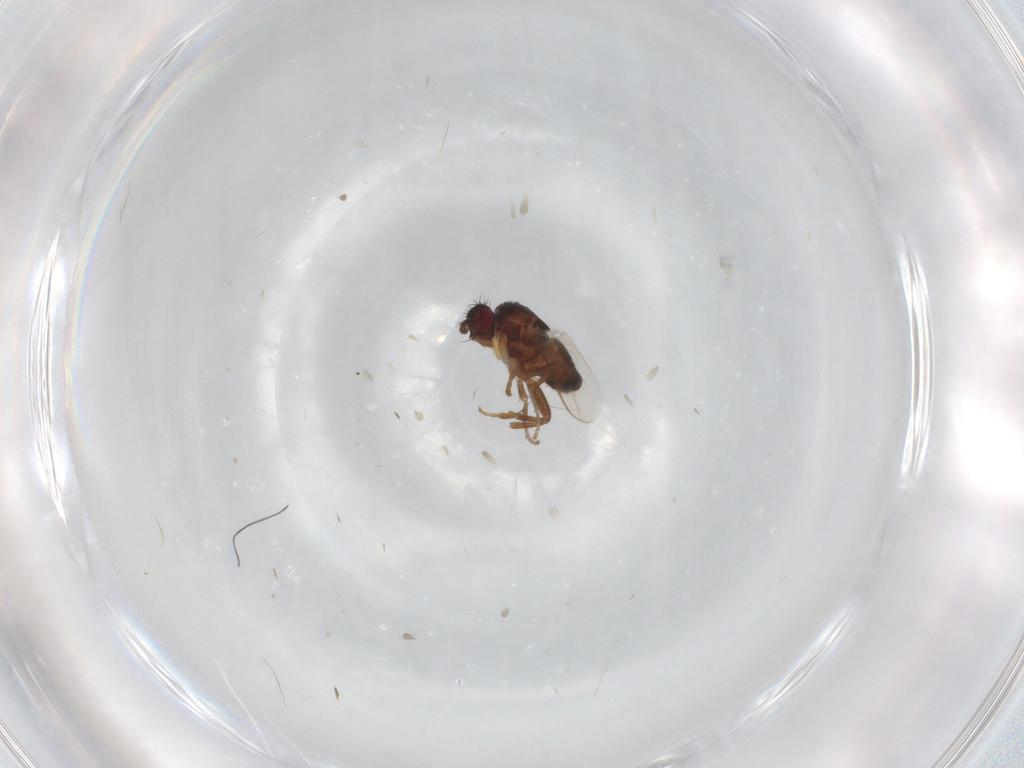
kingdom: Animalia
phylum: Arthropoda
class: Insecta
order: Diptera
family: Sphaeroceridae
